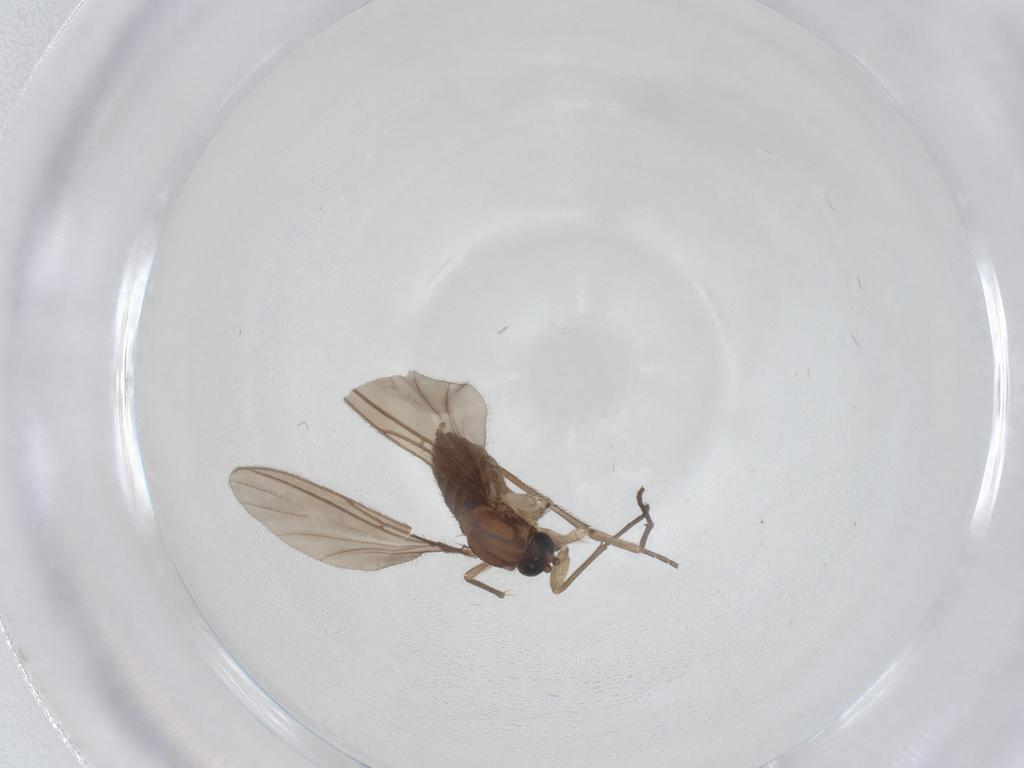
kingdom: Animalia
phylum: Arthropoda
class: Insecta
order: Diptera
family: Sciaridae
